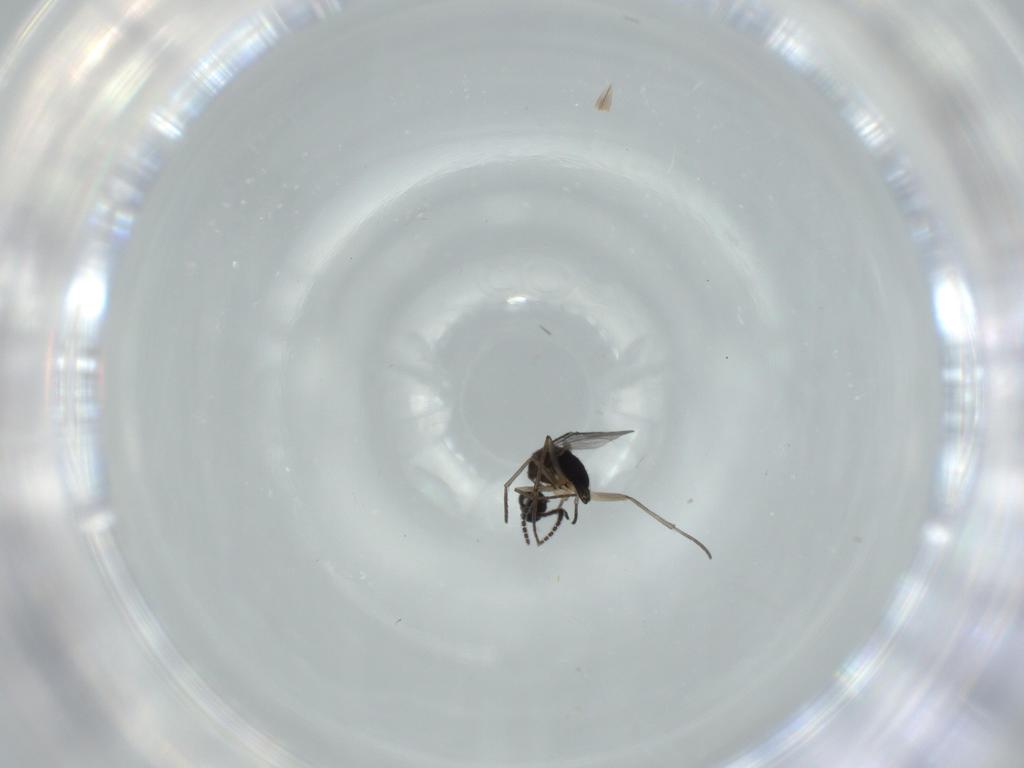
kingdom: Animalia
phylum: Arthropoda
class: Insecta
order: Diptera
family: Sciaridae
